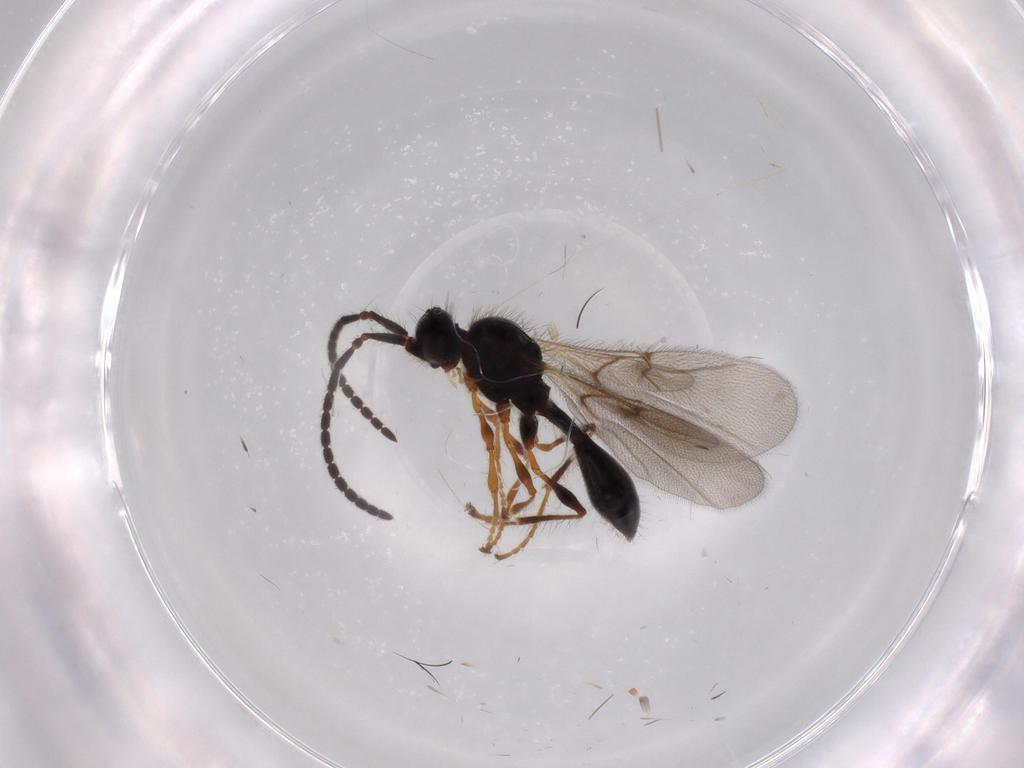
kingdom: Animalia
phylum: Arthropoda
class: Insecta
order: Hymenoptera
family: Diapriidae
